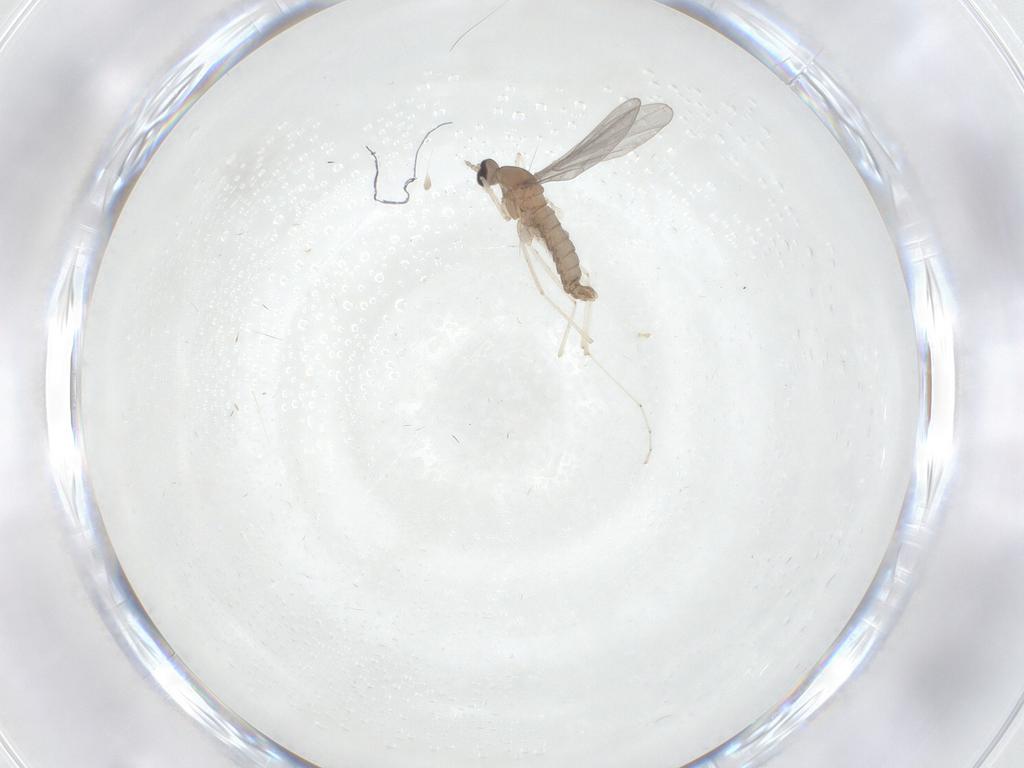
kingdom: Animalia
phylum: Arthropoda
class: Insecta
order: Diptera
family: Cecidomyiidae
